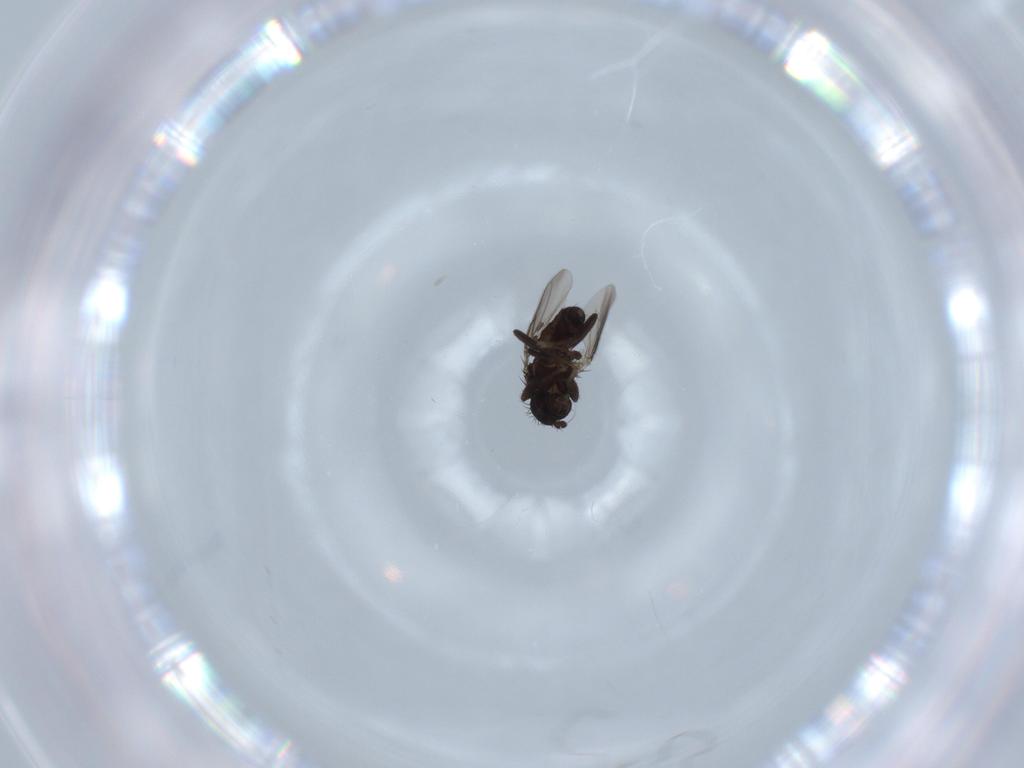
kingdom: Animalia
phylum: Arthropoda
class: Insecta
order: Diptera
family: Sphaeroceridae
